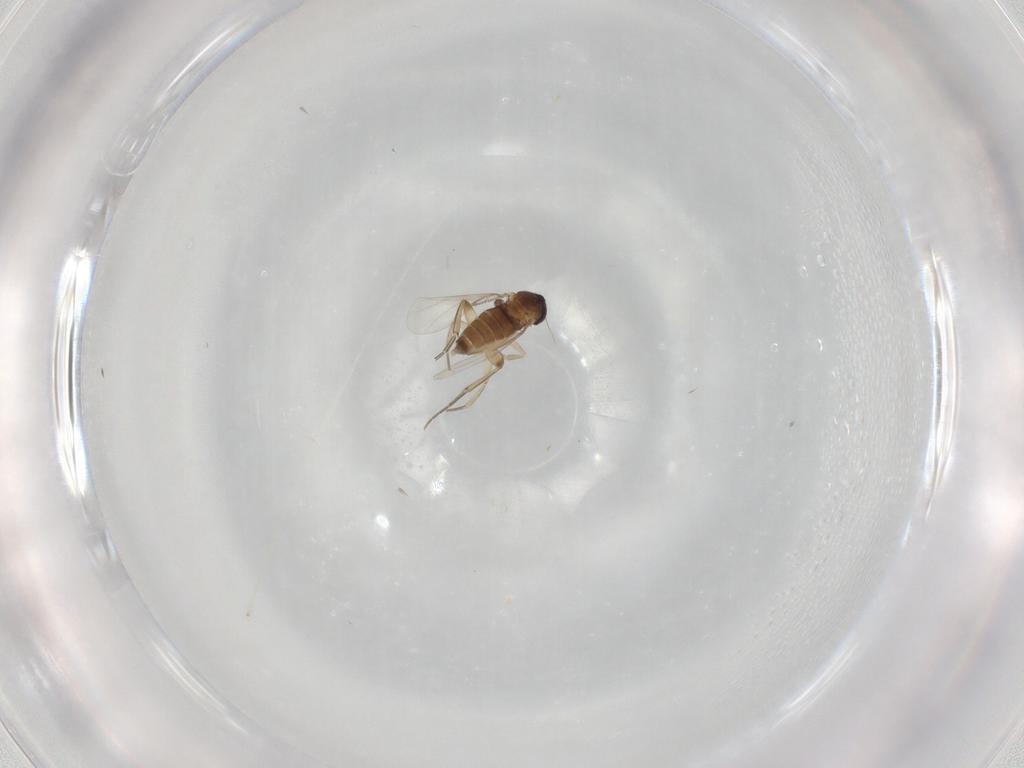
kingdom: Animalia
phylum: Arthropoda
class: Insecta
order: Diptera
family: Phoridae
